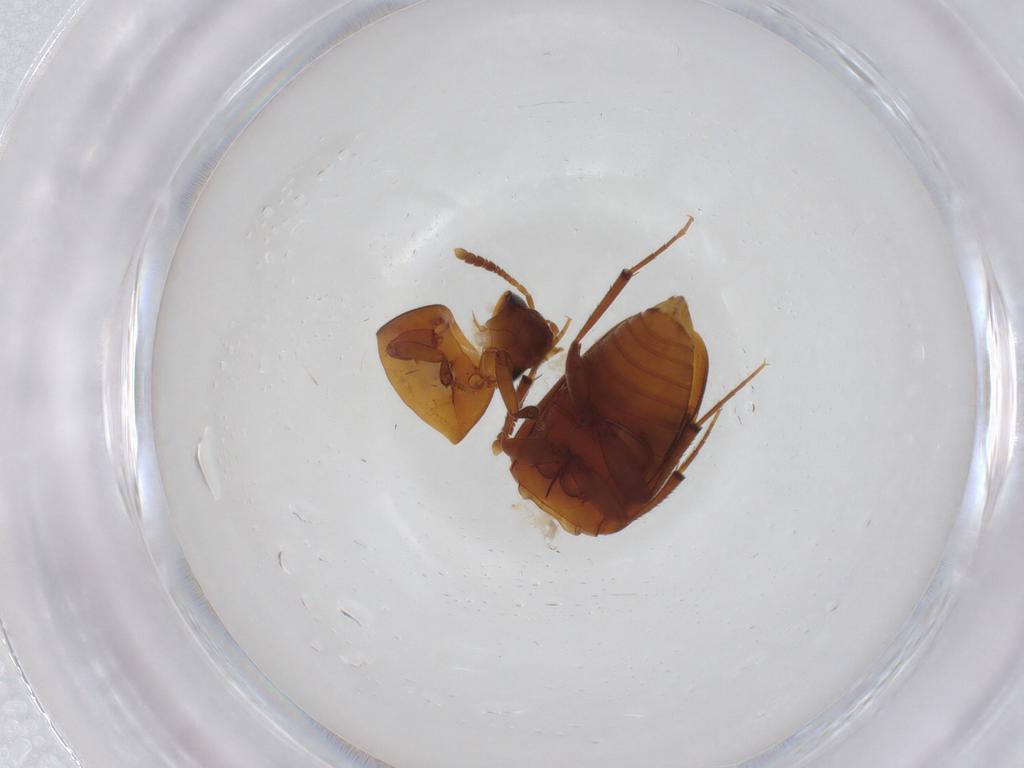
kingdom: Animalia
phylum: Arthropoda
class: Insecta
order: Coleoptera
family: Leiodidae
